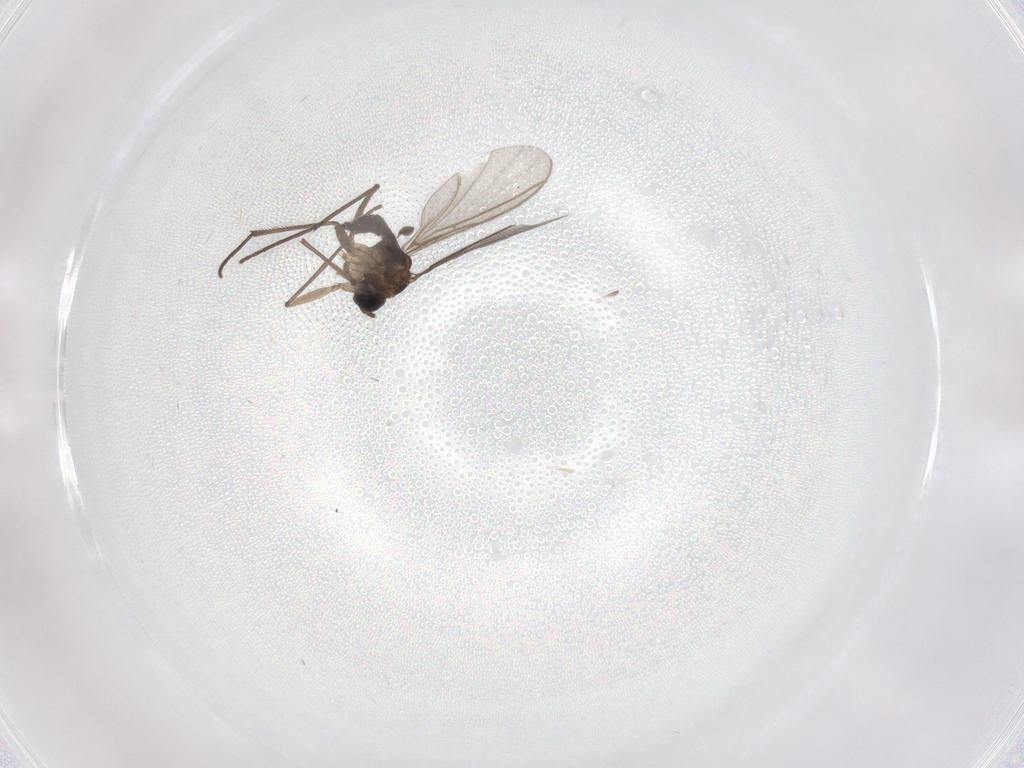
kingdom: Animalia
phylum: Arthropoda
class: Insecta
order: Diptera
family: Sciaridae
